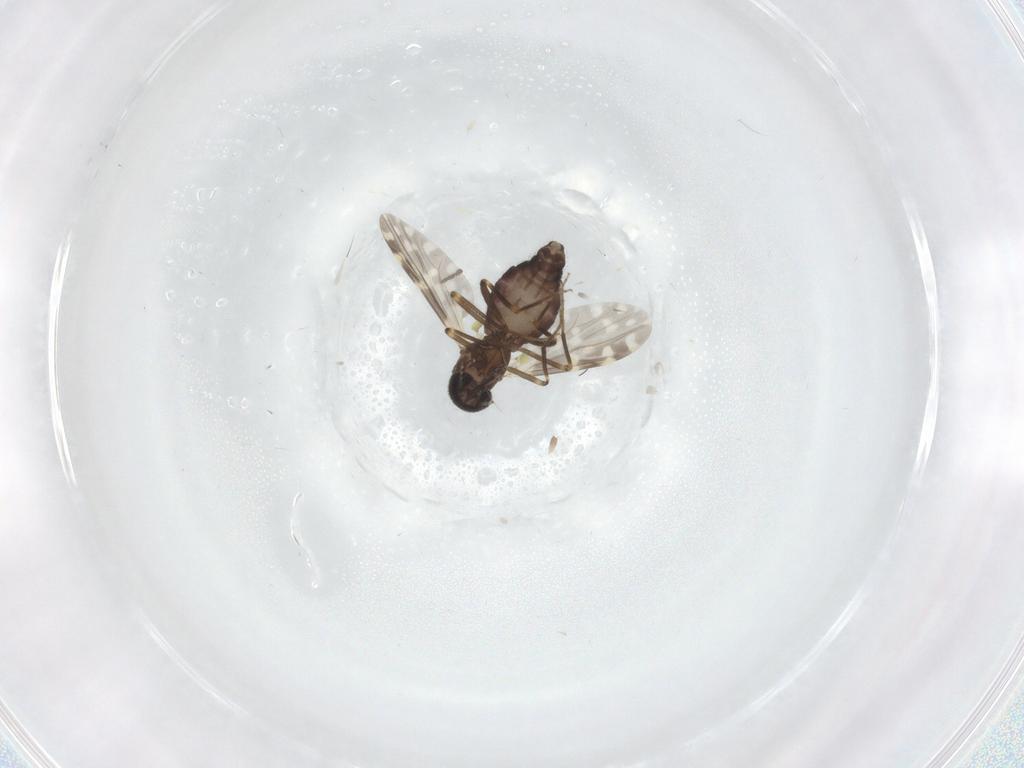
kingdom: Animalia
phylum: Arthropoda
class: Insecta
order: Diptera
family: Ceratopogonidae
